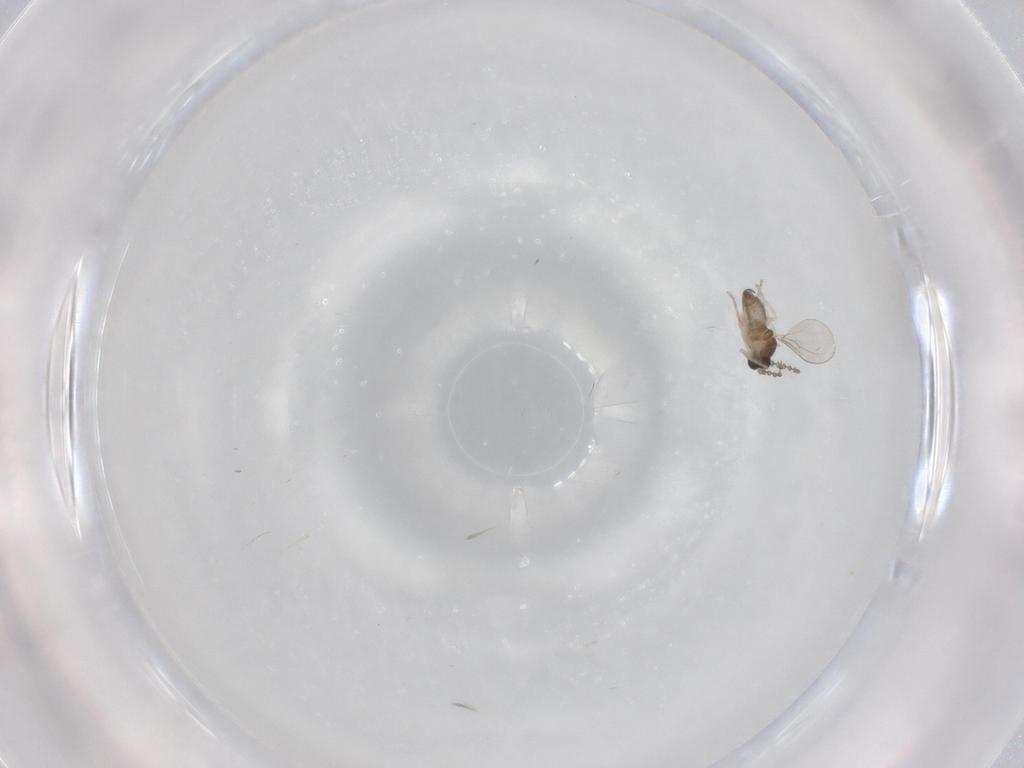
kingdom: Animalia
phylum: Arthropoda
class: Insecta
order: Diptera
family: Cecidomyiidae
